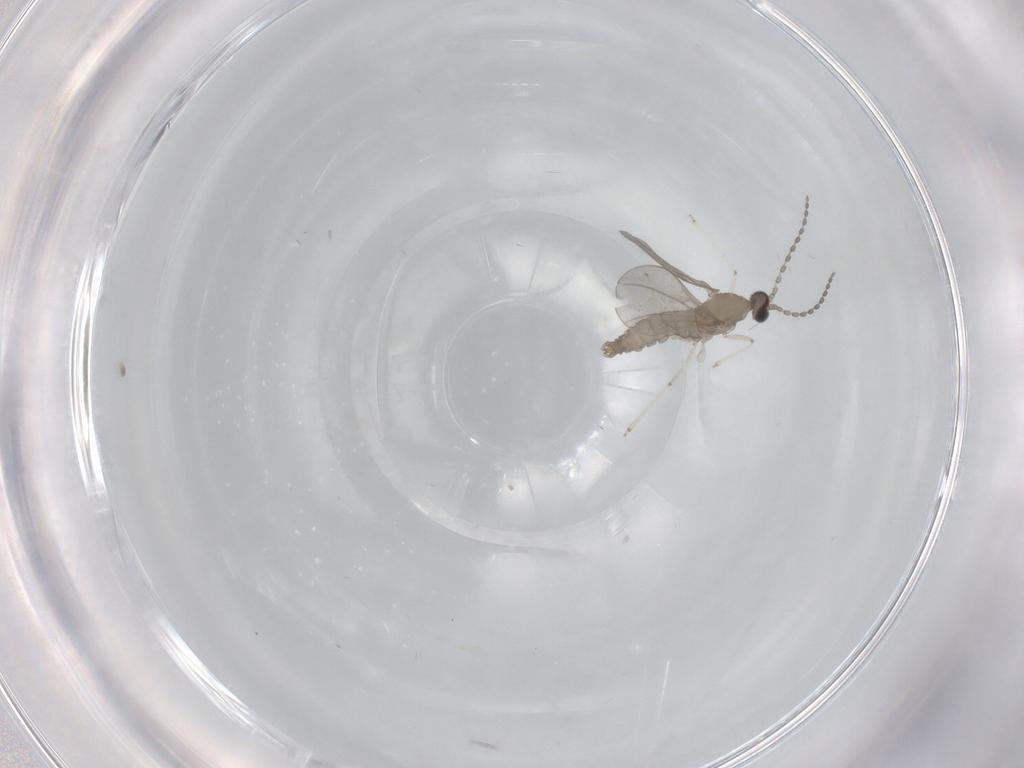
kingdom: Animalia
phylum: Arthropoda
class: Insecta
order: Diptera
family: Cecidomyiidae
